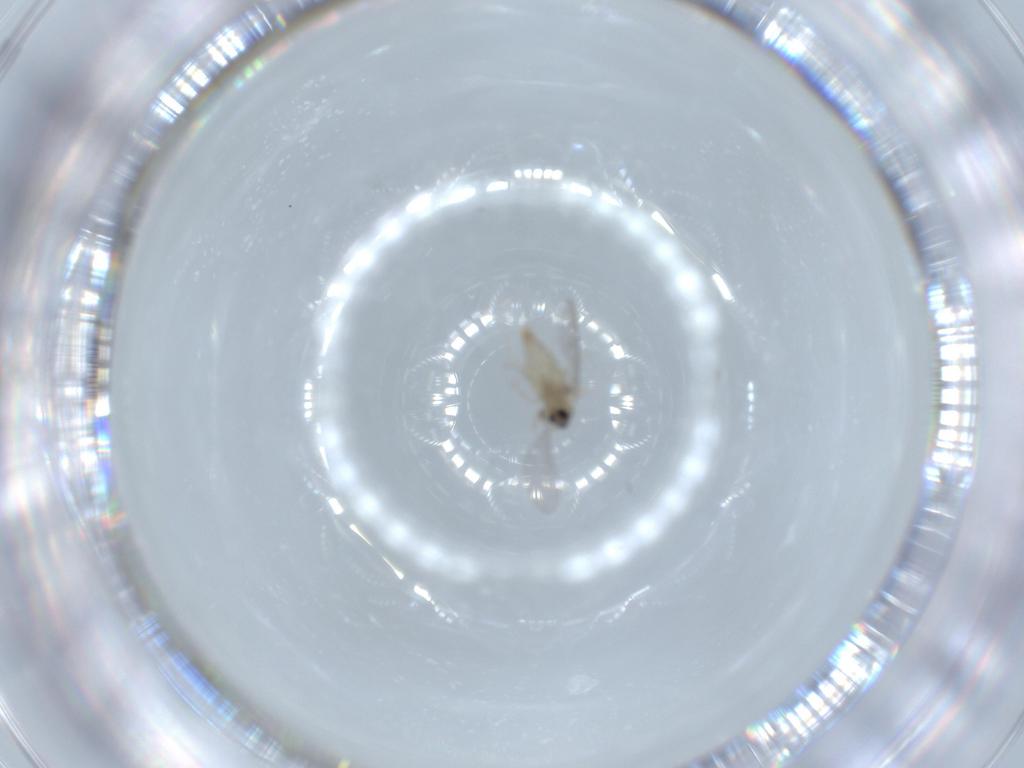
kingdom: Animalia
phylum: Arthropoda
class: Insecta
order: Diptera
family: Cecidomyiidae
